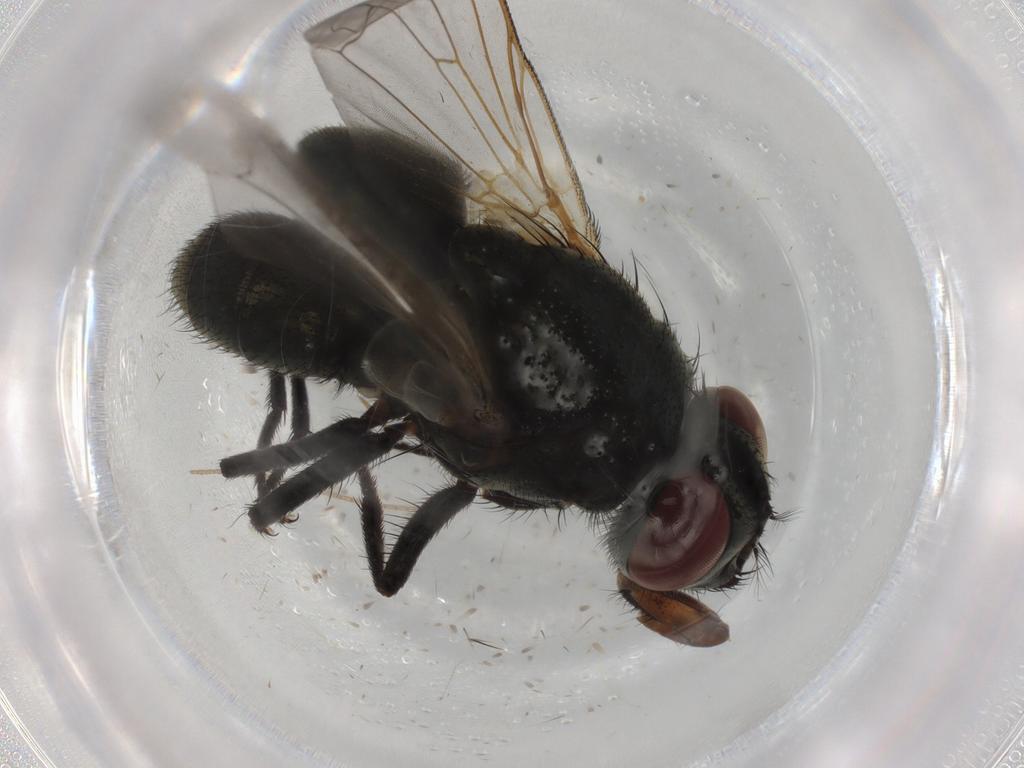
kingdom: Animalia
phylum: Arthropoda
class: Insecta
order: Diptera
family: Muscidae
